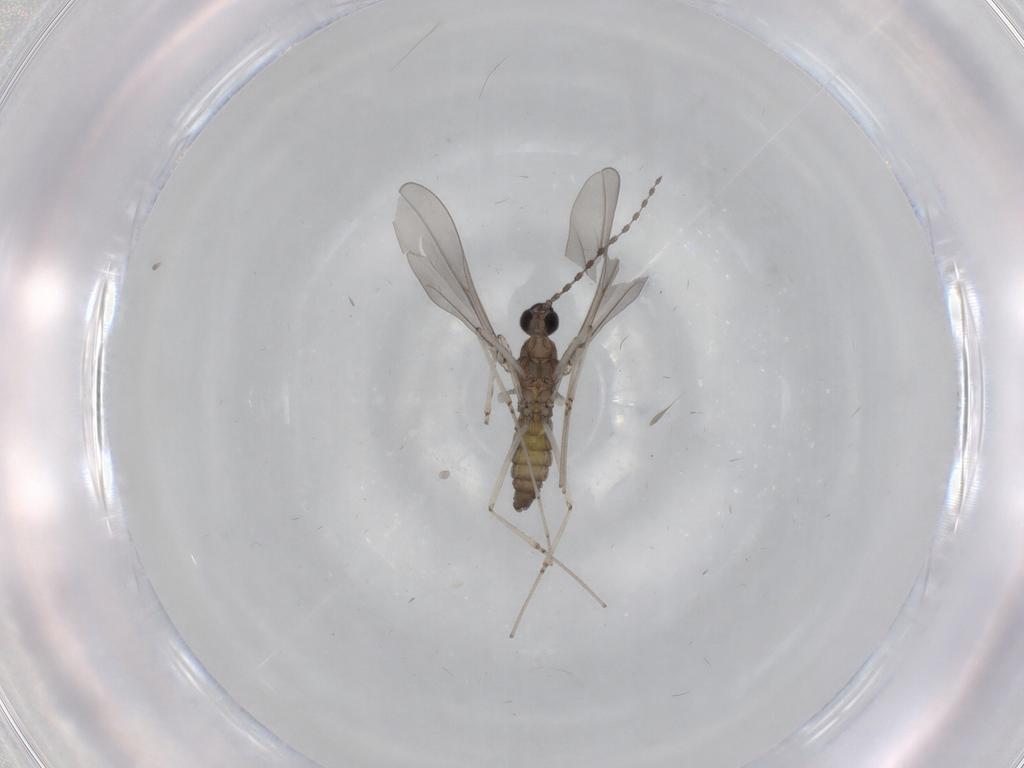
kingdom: Animalia
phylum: Arthropoda
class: Insecta
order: Diptera
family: Cecidomyiidae
